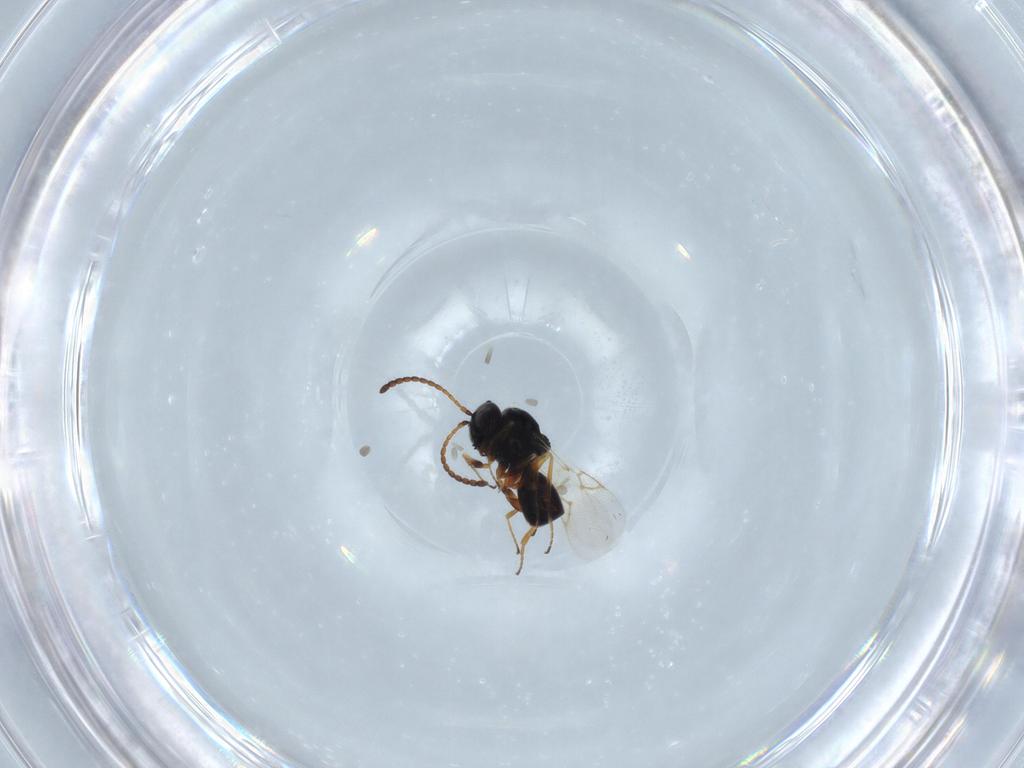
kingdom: Animalia
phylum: Arthropoda
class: Insecta
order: Hymenoptera
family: Figitidae
